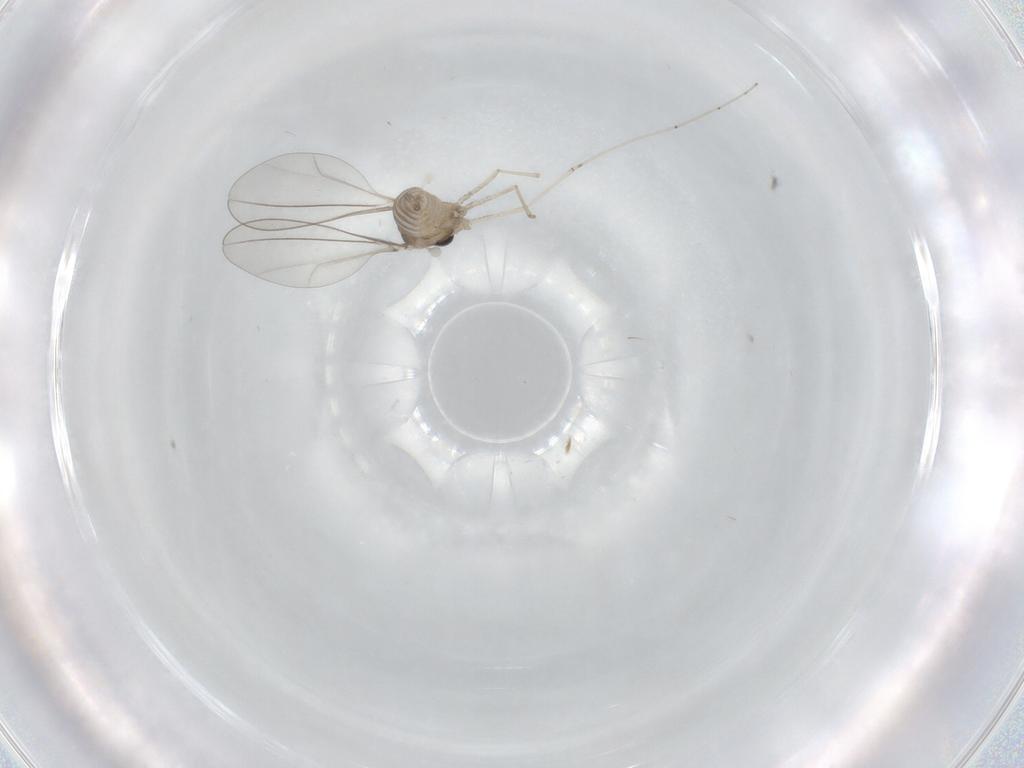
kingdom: Animalia
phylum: Arthropoda
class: Insecta
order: Diptera
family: Cecidomyiidae
